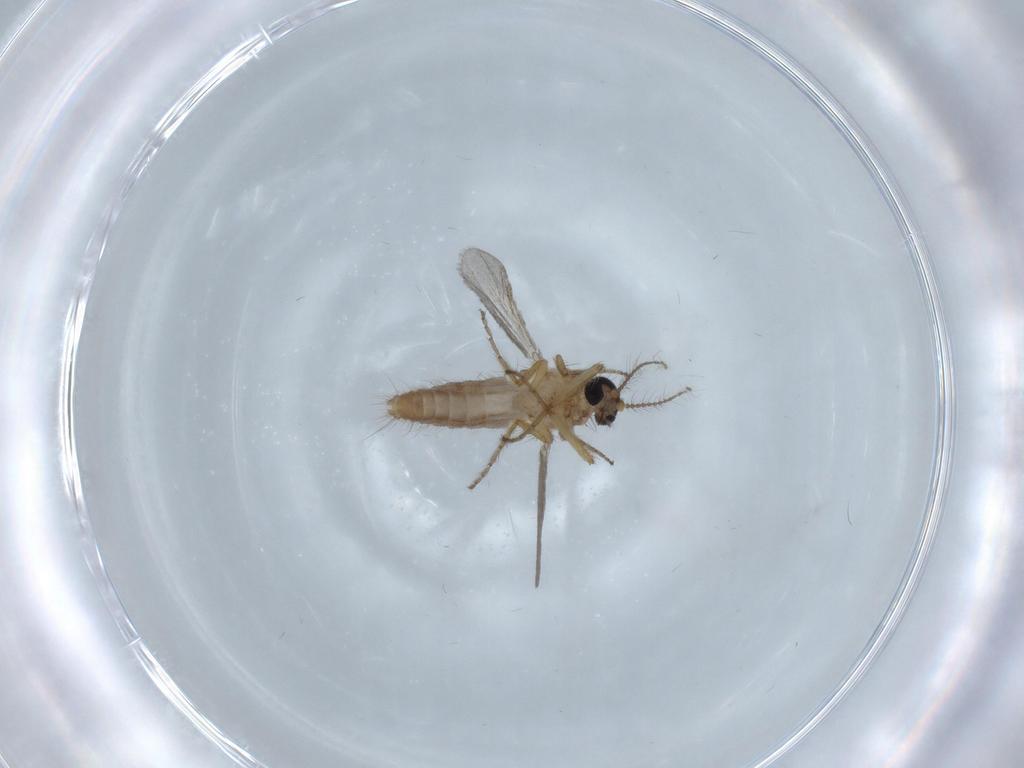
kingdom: Animalia
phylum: Arthropoda
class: Insecta
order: Diptera
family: Ceratopogonidae
